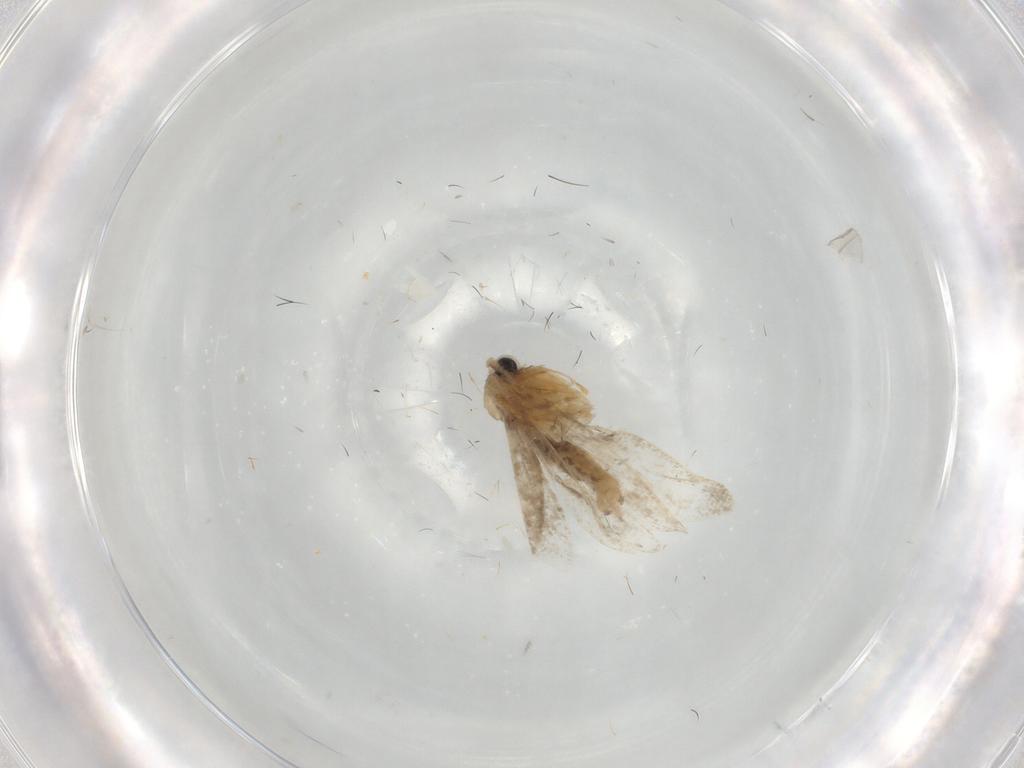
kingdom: Animalia
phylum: Arthropoda
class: Insecta
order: Lepidoptera
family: Psychidae
